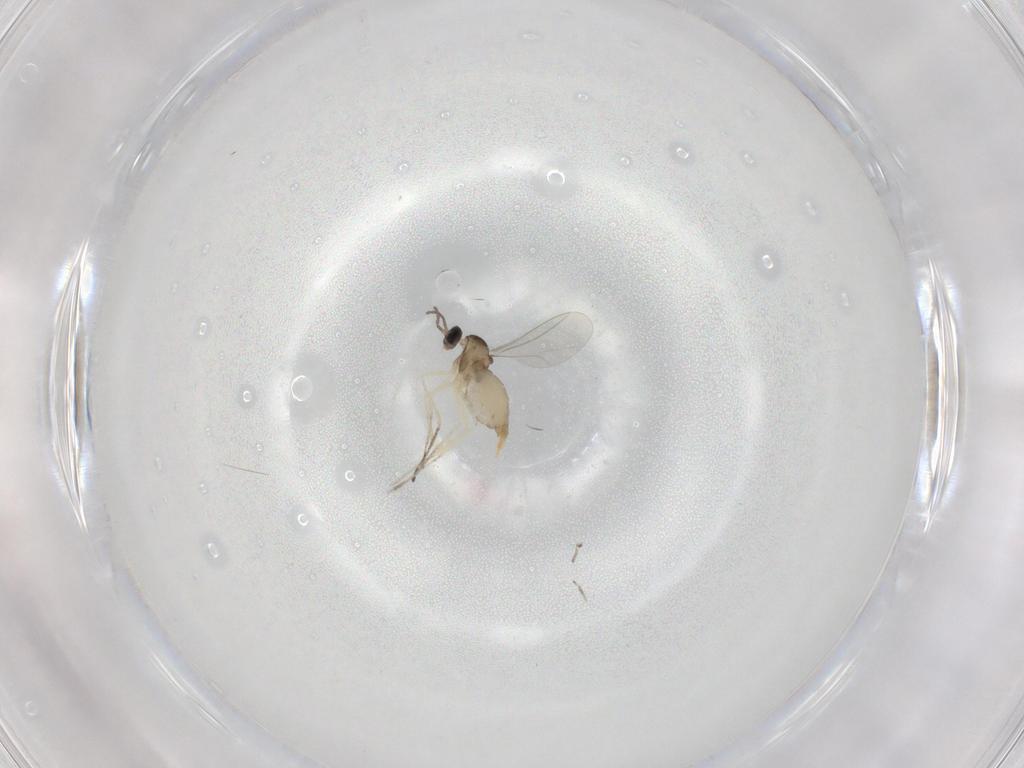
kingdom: Animalia
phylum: Arthropoda
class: Insecta
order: Diptera
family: Cecidomyiidae
